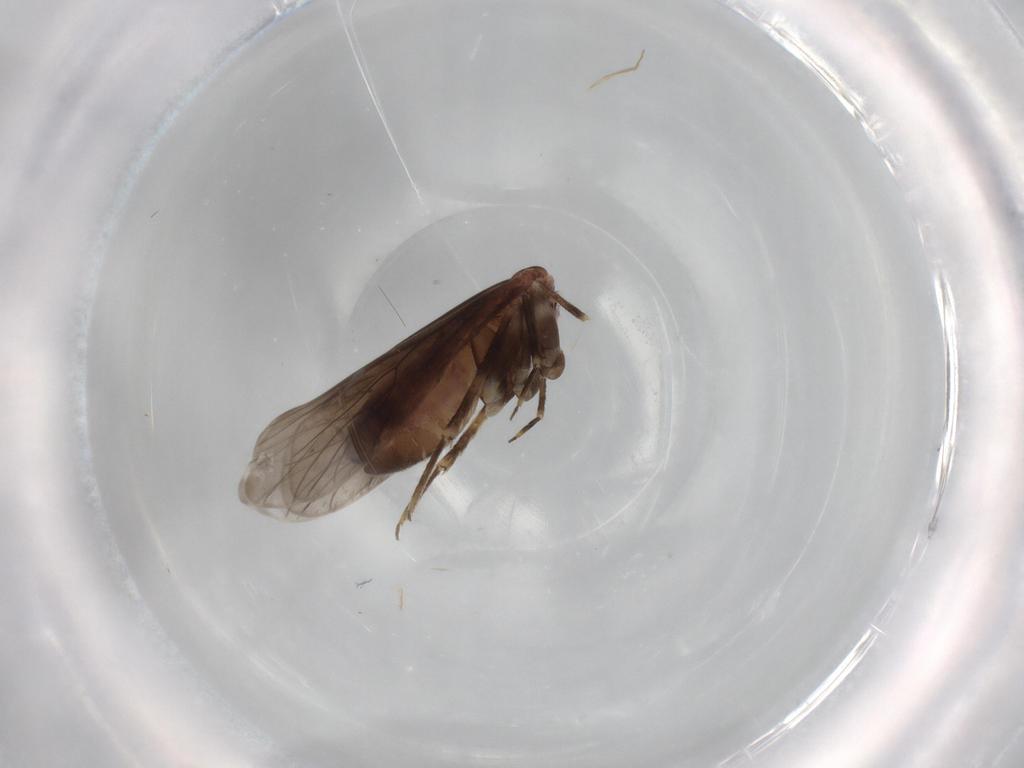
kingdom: Animalia
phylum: Arthropoda
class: Insecta
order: Psocodea
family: Amphientomidae
